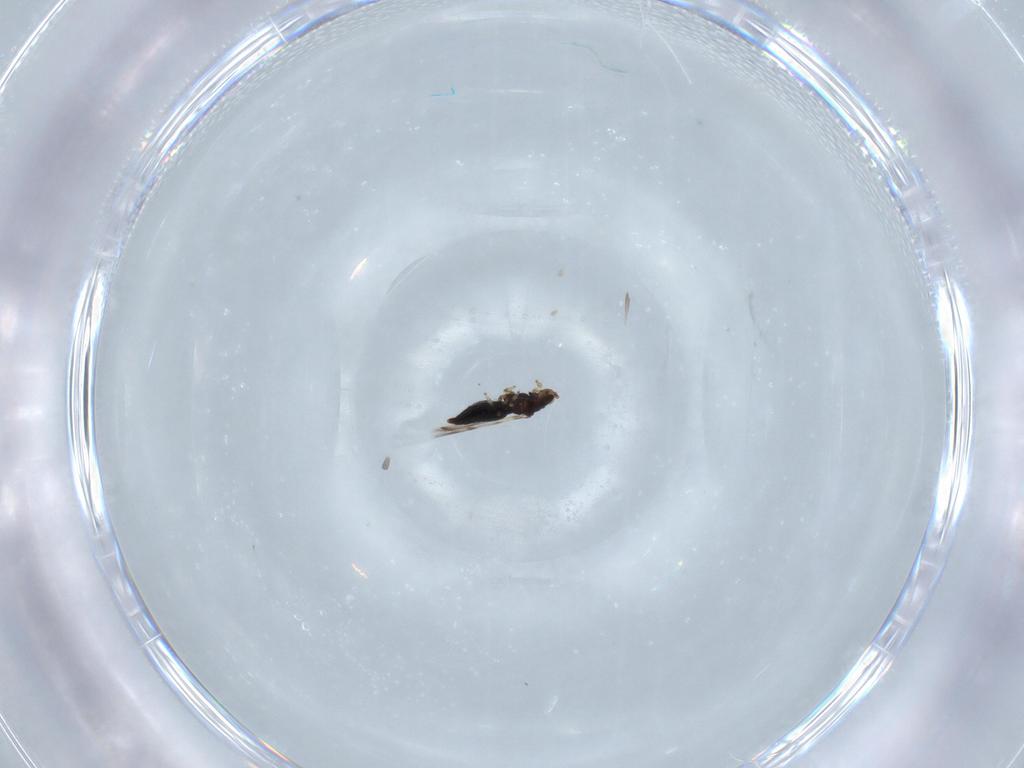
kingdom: Animalia
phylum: Arthropoda
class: Insecta
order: Thysanoptera
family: Thripidae
